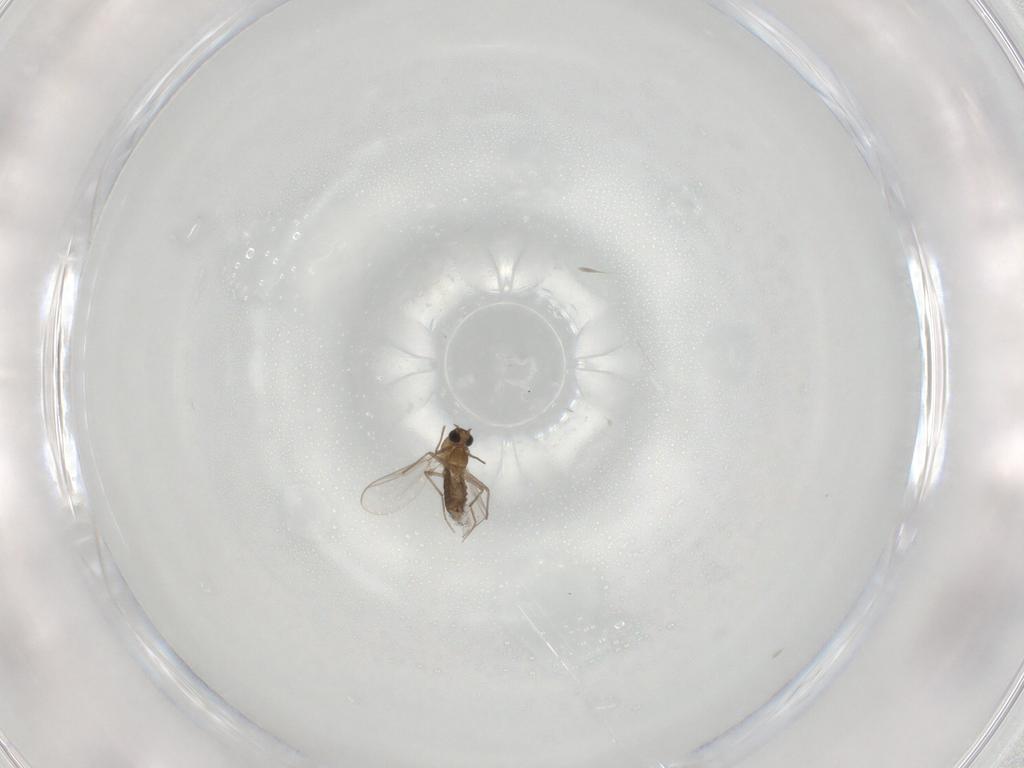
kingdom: Animalia
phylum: Arthropoda
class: Insecta
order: Diptera
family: Chironomidae
